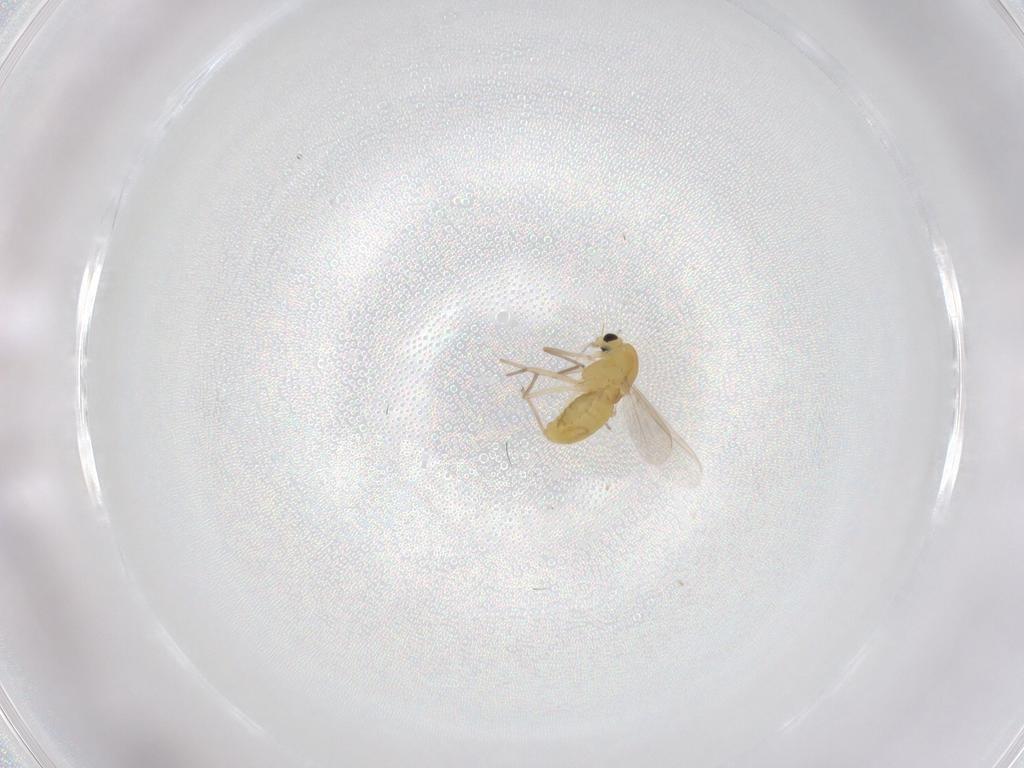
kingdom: Animalia
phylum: Arthropoda
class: Insecta
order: Diptera
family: Chironomidae
